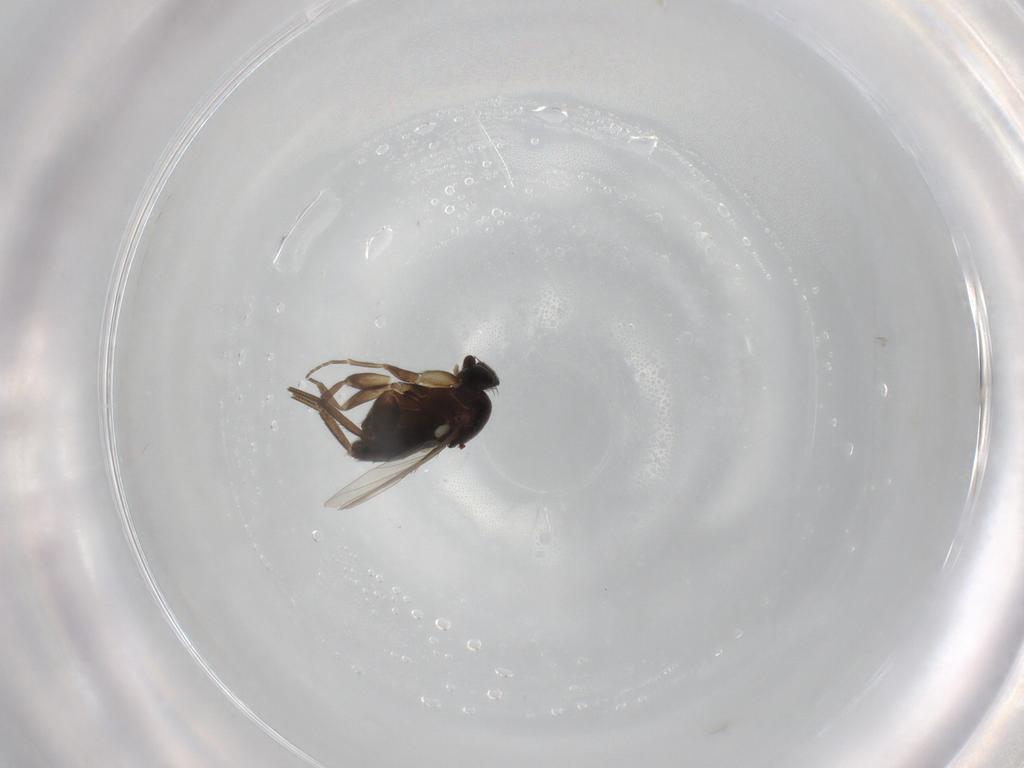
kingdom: Animalia
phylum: Arthropoda
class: Insecta
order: Diptera
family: Phoridae
